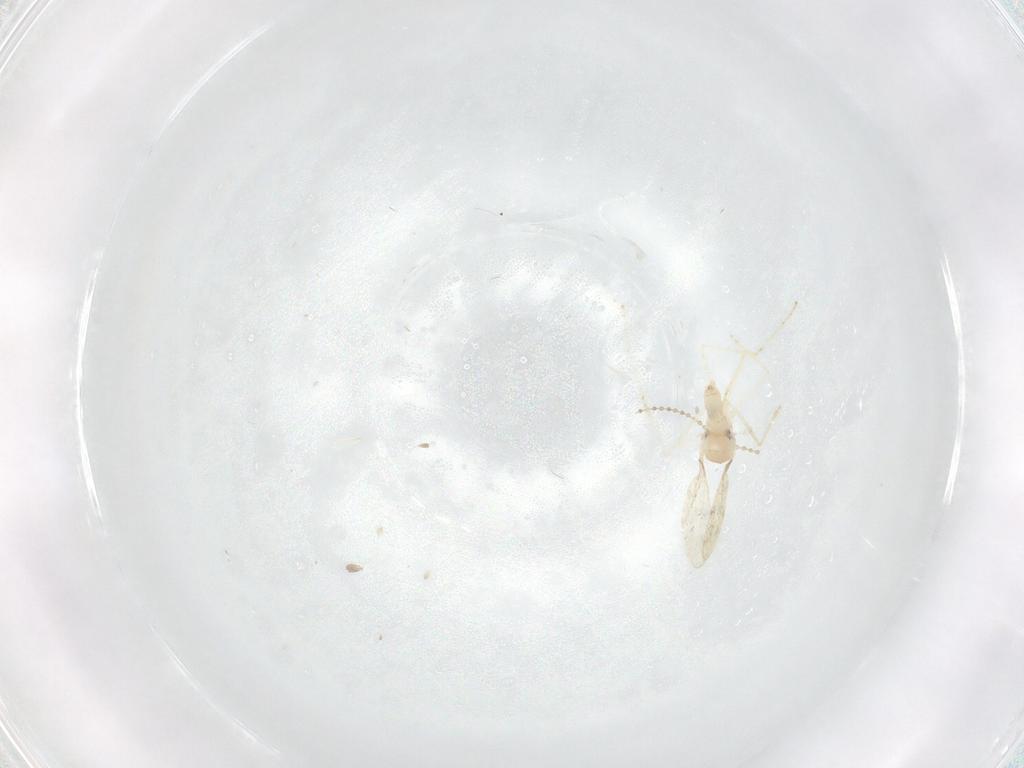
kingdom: Animalia
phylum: Arthropoda
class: Insecta
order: Diptera
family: Cecidomyiidae
